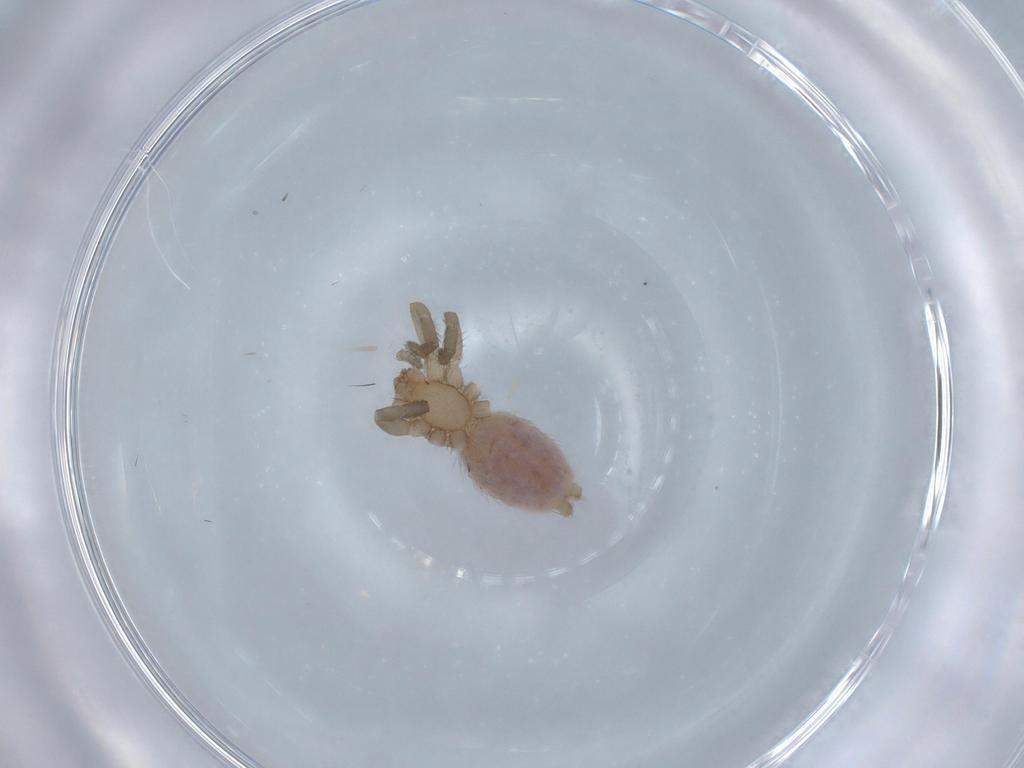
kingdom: Animalia
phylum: Arthropoda
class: Arachnida
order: Araneae
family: Gnaphosidae
